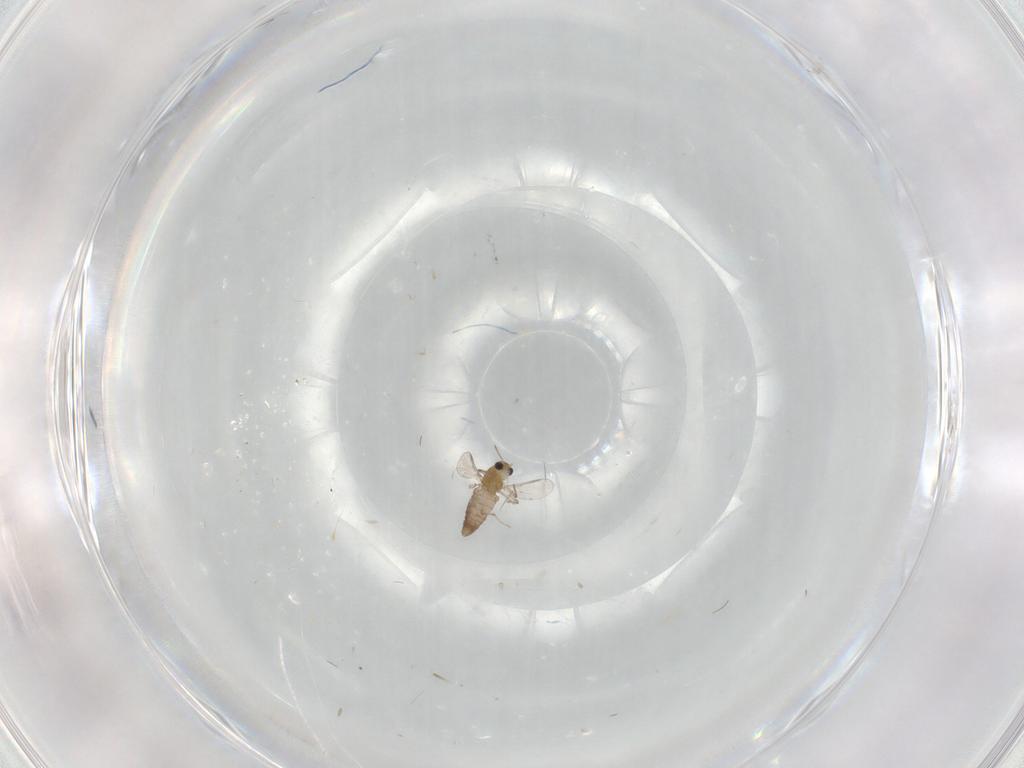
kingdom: Animalia
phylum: Arthropoda
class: Insecta
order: Diptera
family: Chironomidae
